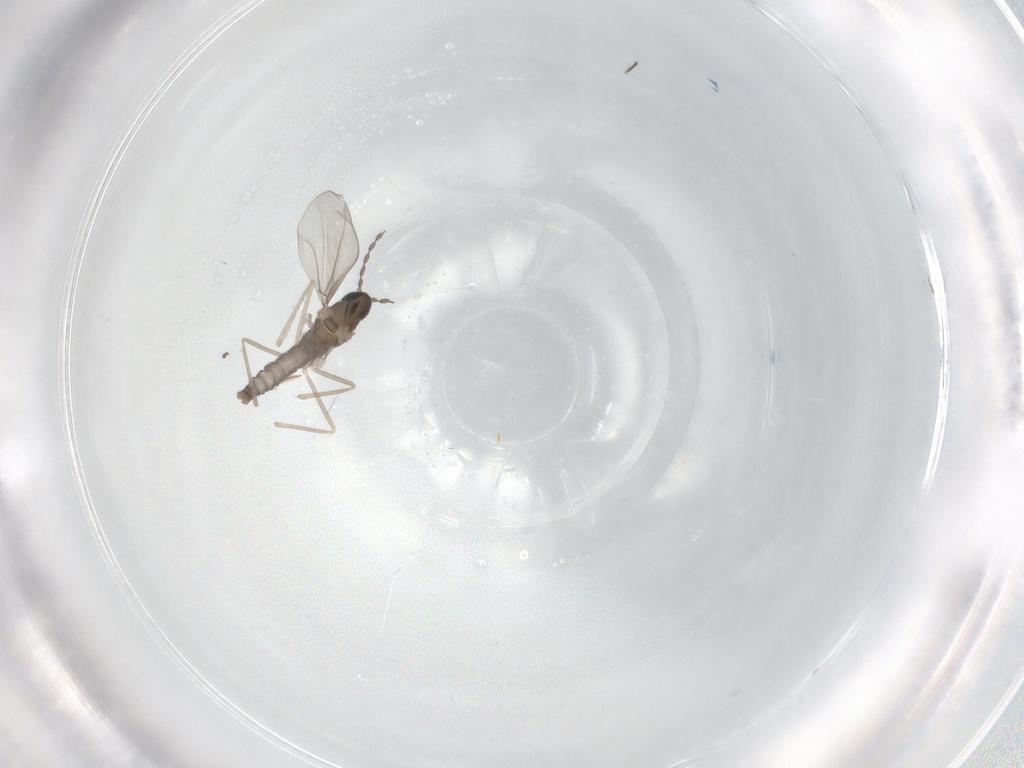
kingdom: Animalia
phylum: Arthropoda
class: Insecta
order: Diptera
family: Cecidomyiidae
